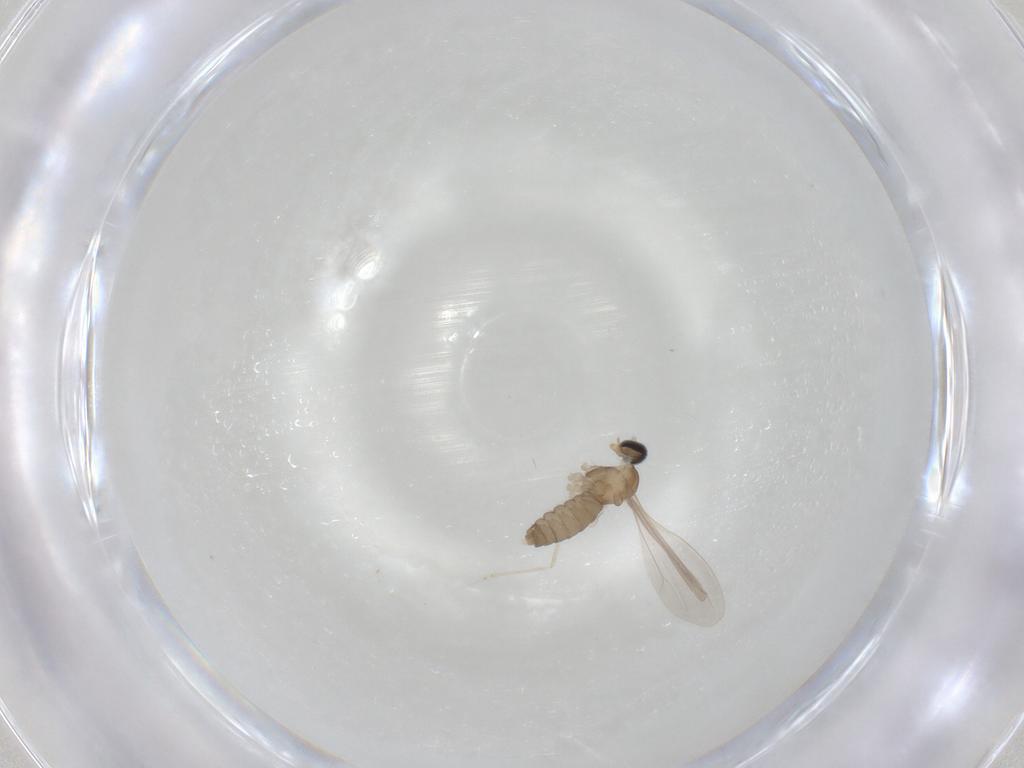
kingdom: Animalia
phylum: Arthropoda
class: Insecta
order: Diptera
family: Cecidomyiidae
